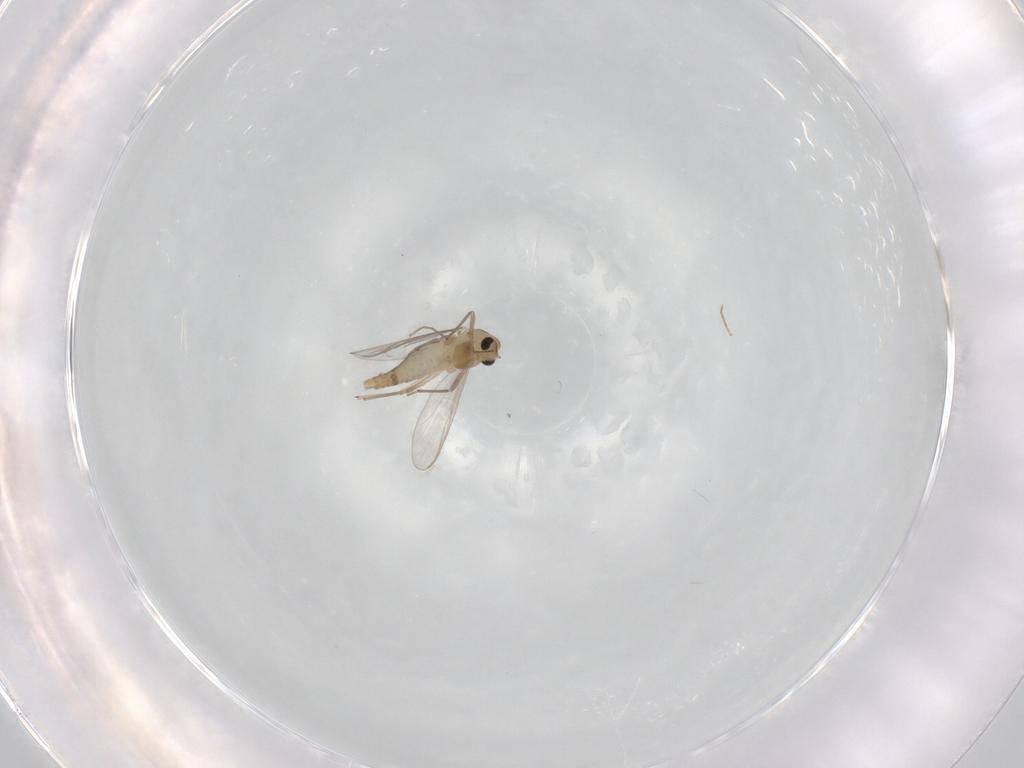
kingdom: Animalia
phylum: Arthropoda
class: Insecta
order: Diptera
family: Chironomidae
